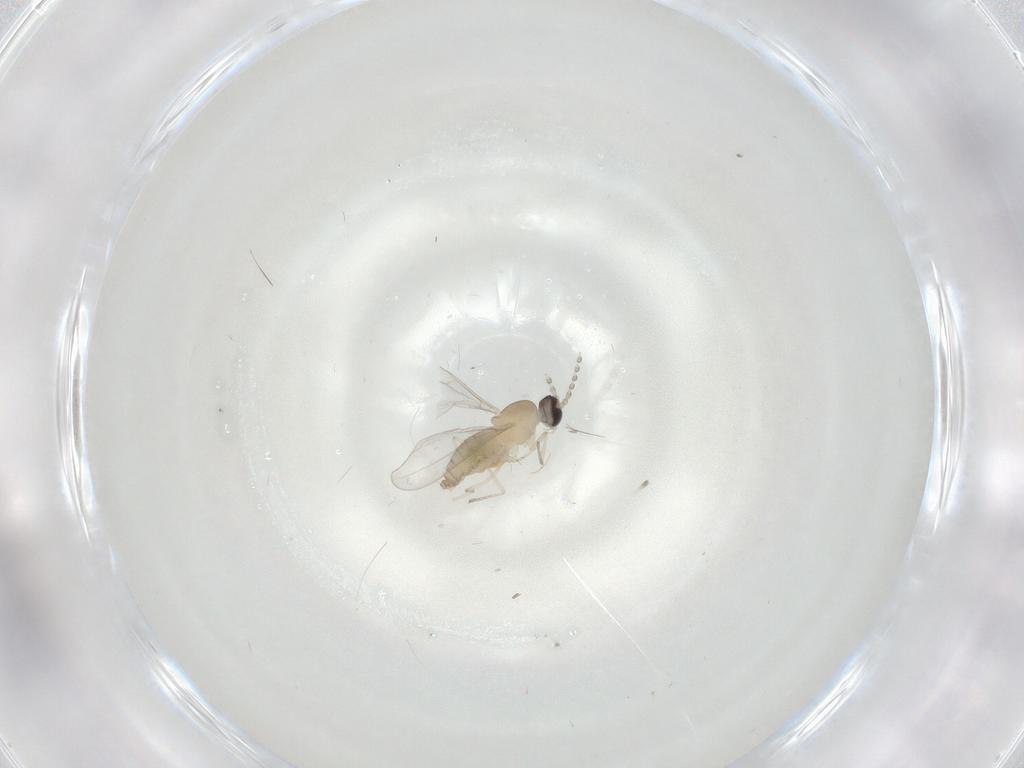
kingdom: Animalia
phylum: Arthropoda
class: Insecta
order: Diptera
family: Cecidomyiidae
